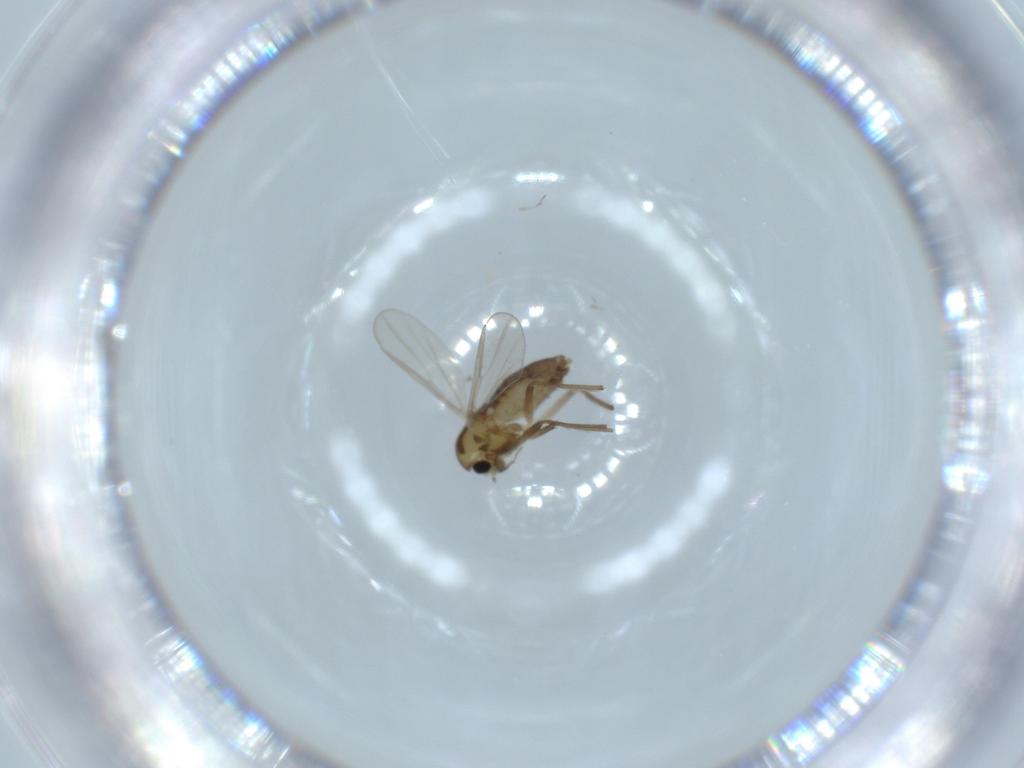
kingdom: Animalia
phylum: Arthropoda
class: Insecta
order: Diptera
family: Chironomidae
